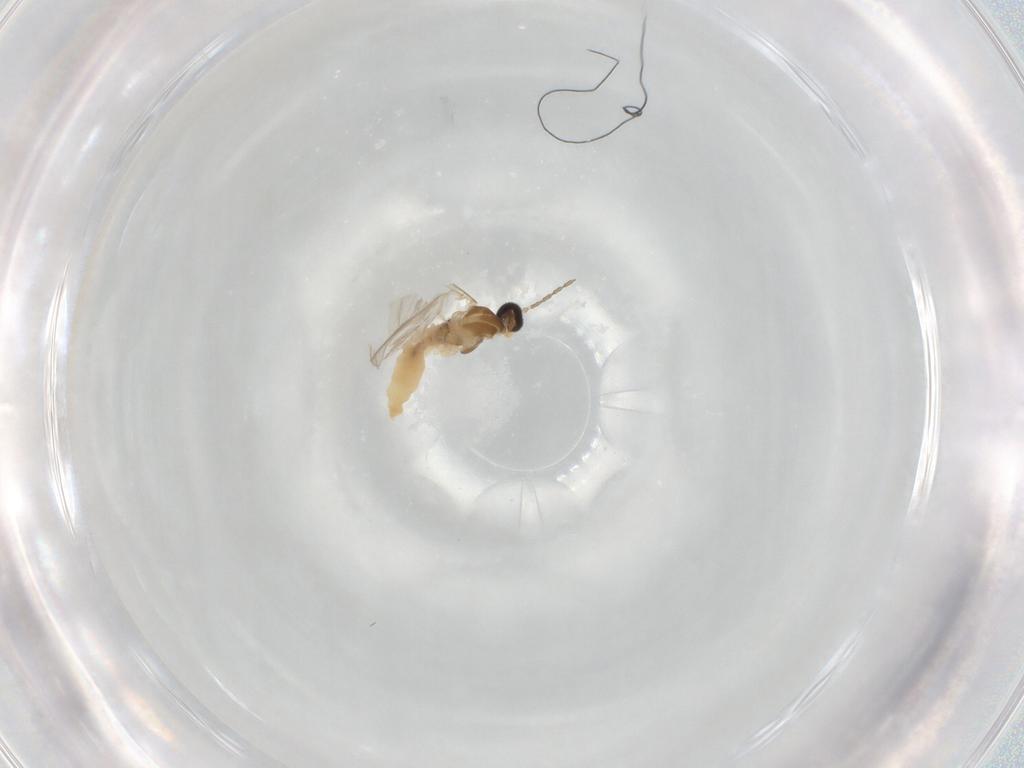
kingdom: Animalia
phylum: Arthropoda
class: Insecta
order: Diptera
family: Cecidomyiidae
